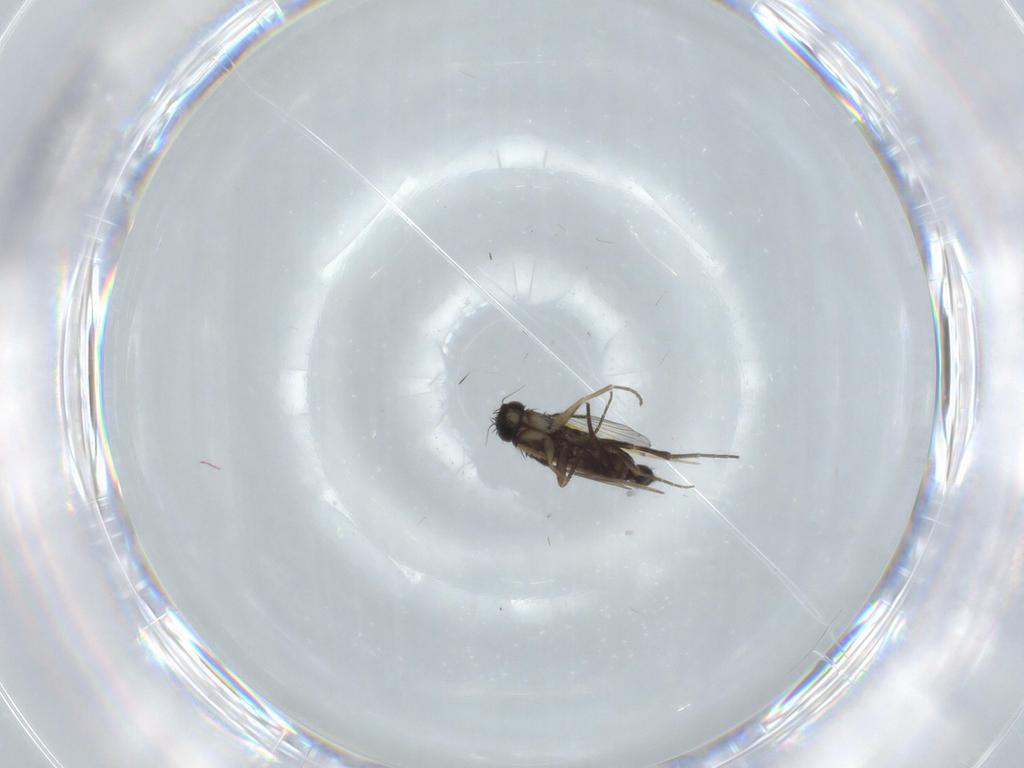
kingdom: Animalia
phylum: Arthropoda
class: Insecta
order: Diptera
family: Phoridae
